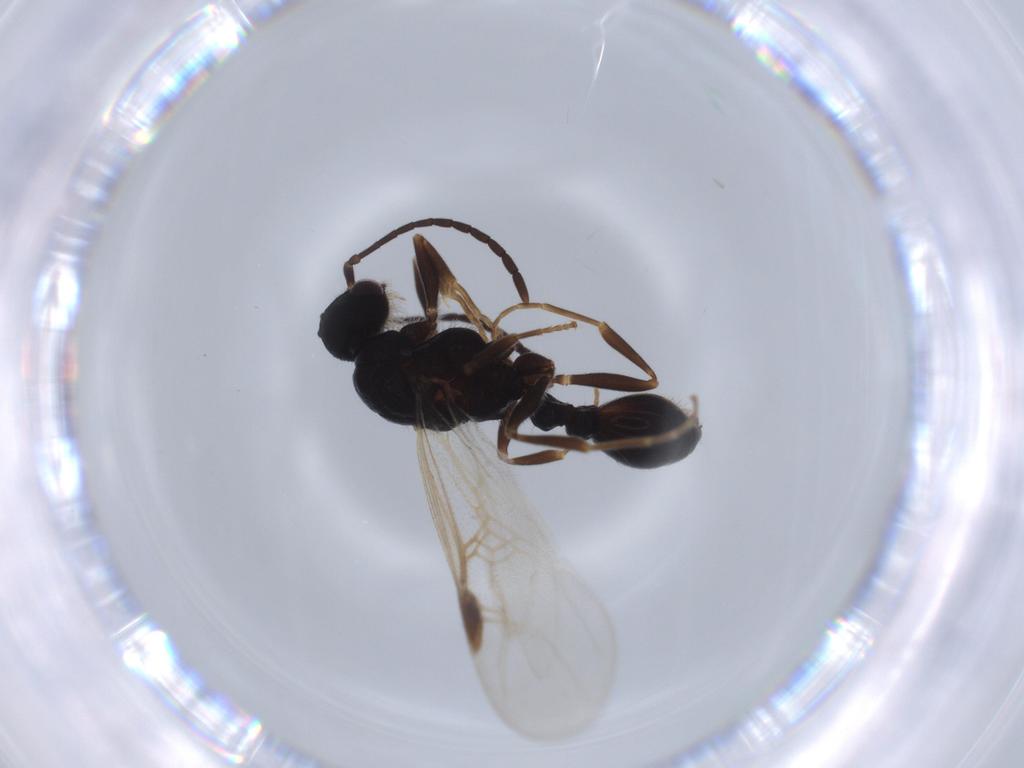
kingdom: Animalia
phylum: Arthropoda
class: Insecta
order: Hymenoptera
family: Formicidae
